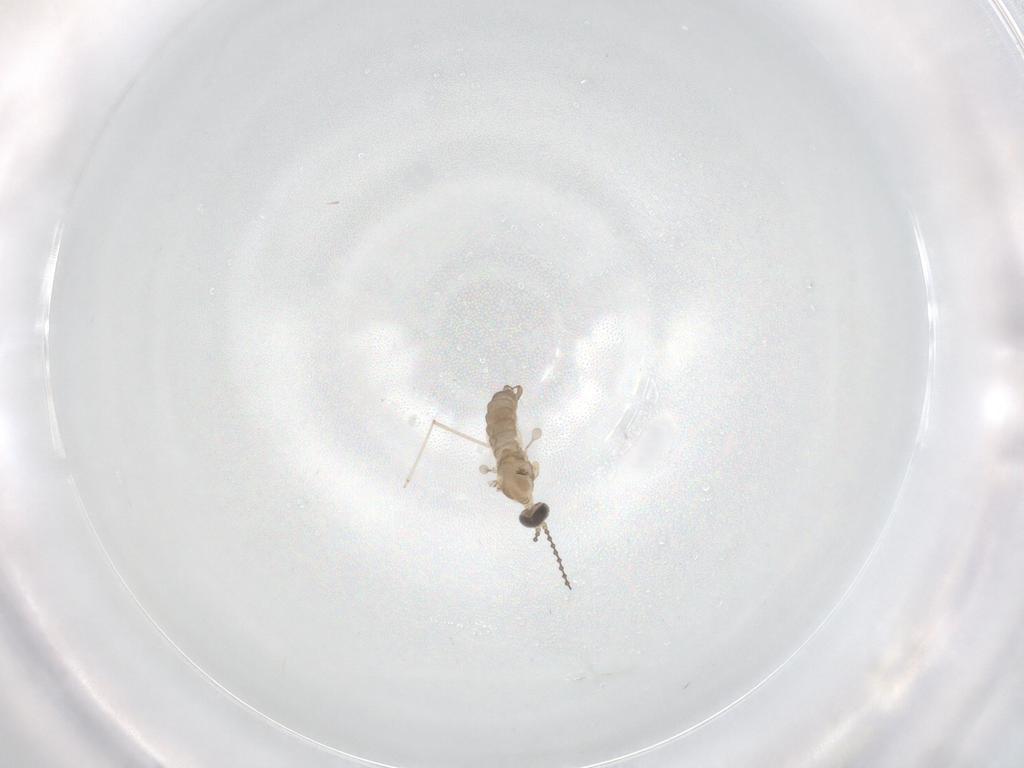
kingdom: Animalia
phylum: Arthropoda
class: Insecta
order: Diptera
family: Cecidomyiidae
